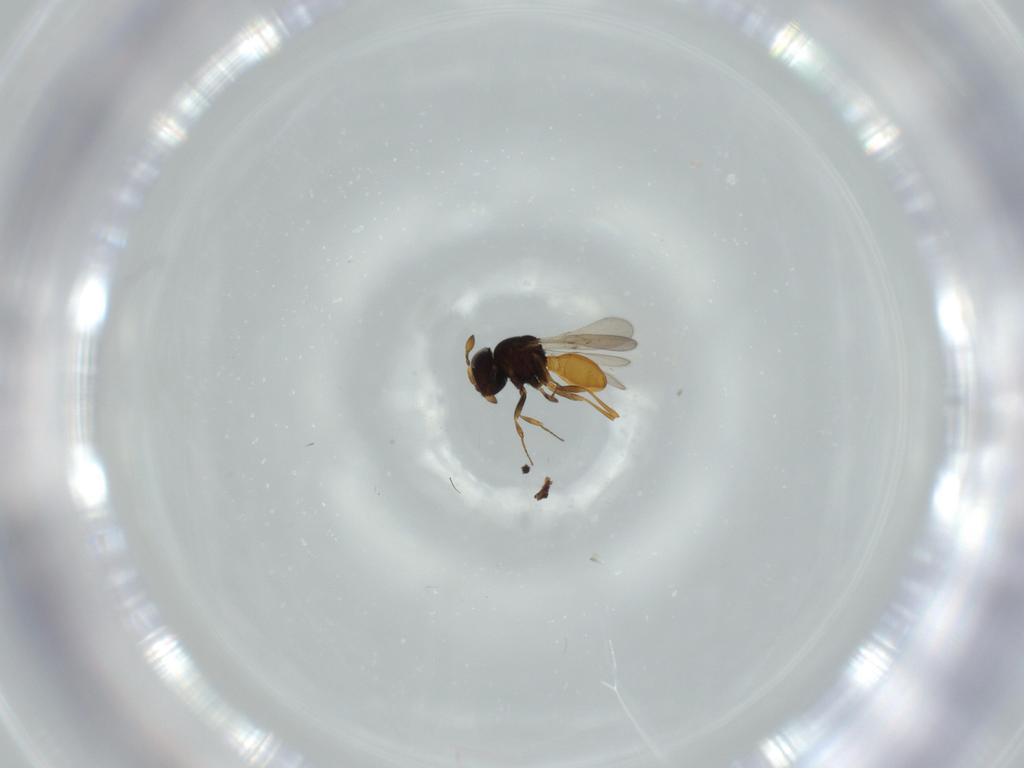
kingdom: Animalia
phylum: Arthropoda
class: Insecta
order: Hymenoptera
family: Scelionidae
